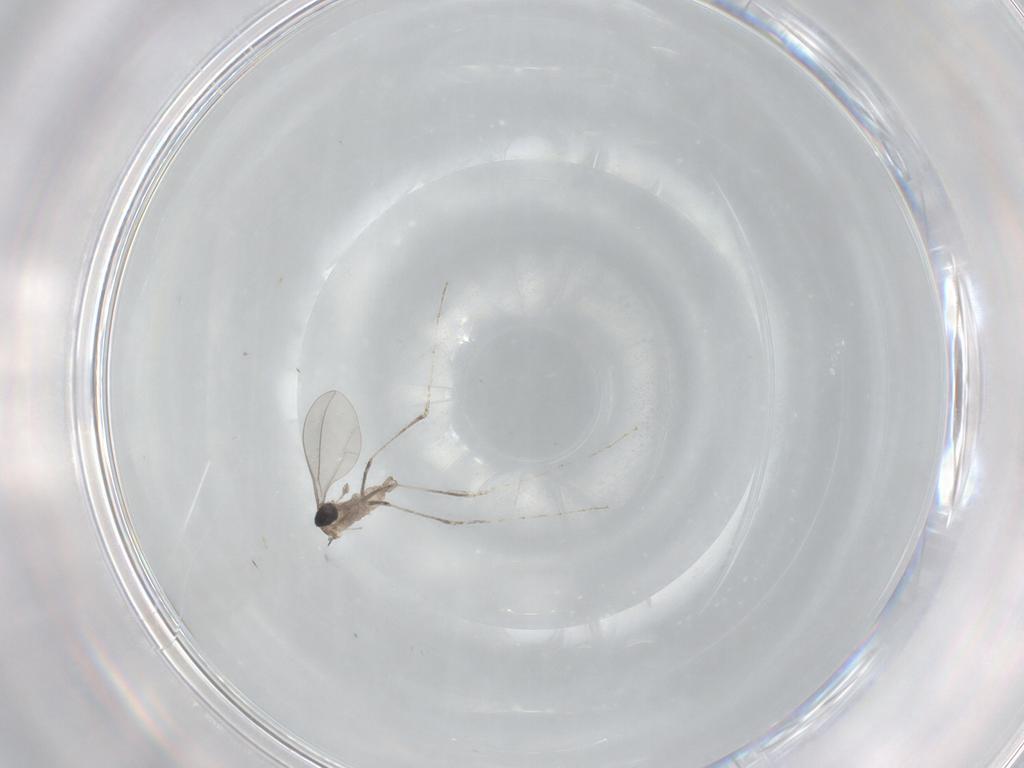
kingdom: Animalia
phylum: Arthropoda
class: Insecta
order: Diptera
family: Cecidomyiidae
